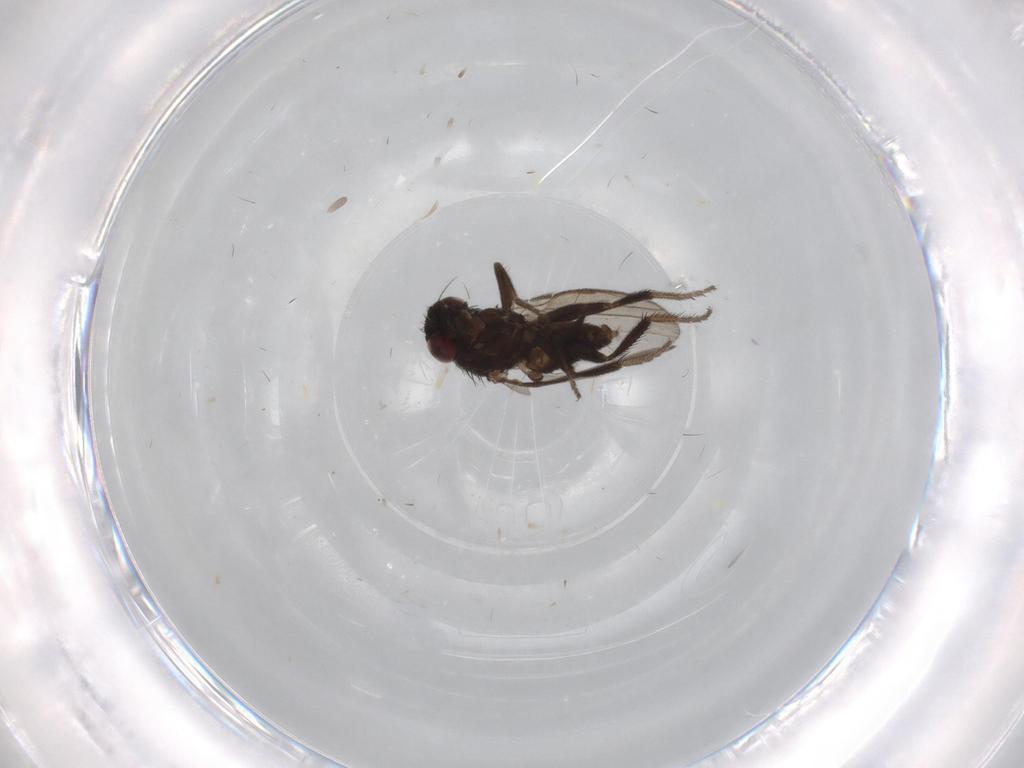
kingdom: Animalia
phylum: Arthropoda
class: Insecta
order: Diptera
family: Milichiidae
